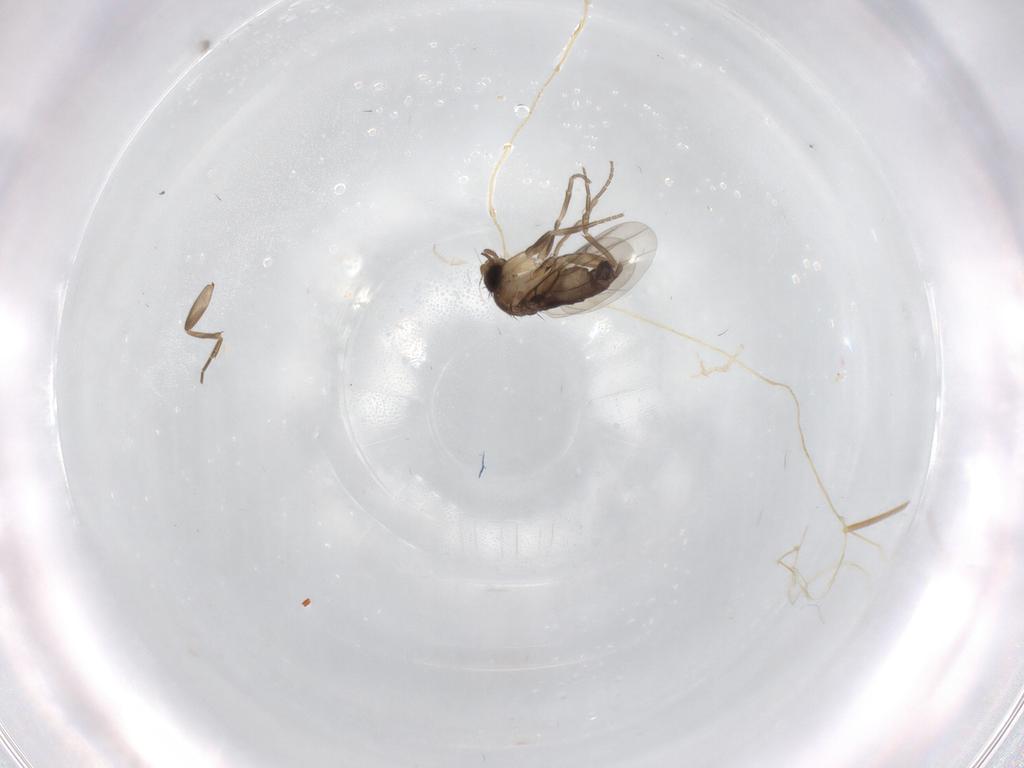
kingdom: Animalia
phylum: Arthropoda
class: Insecta
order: Diptera
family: Phoridae
